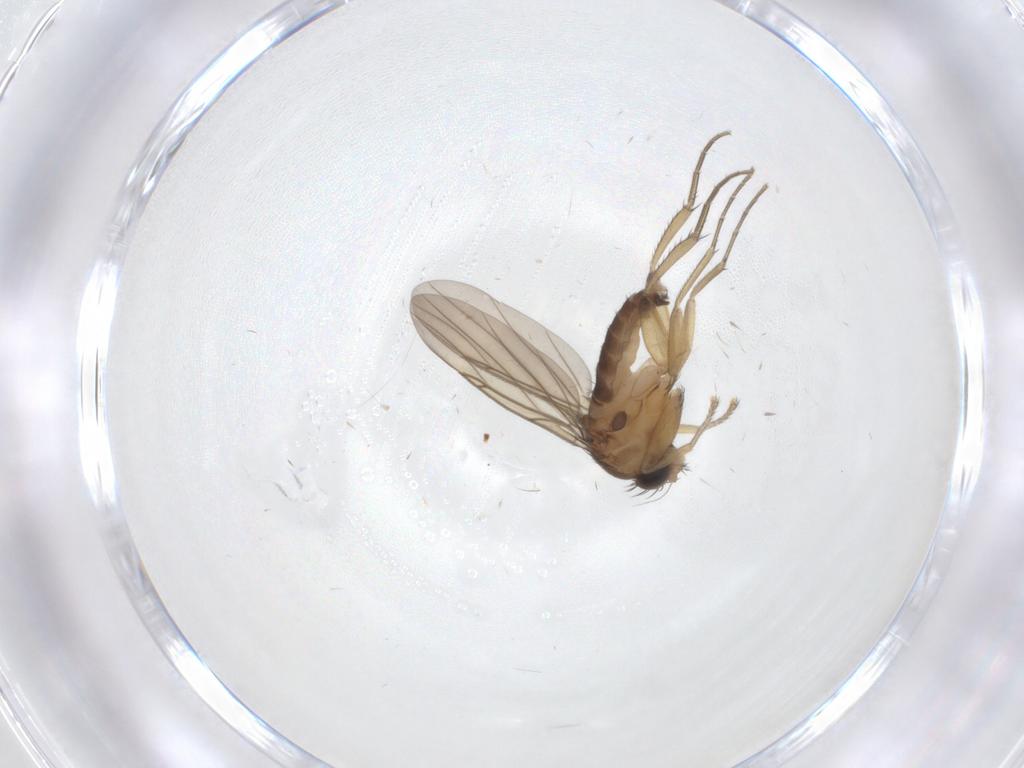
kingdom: Animalia
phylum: Arthropoda
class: Insecta
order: Diptera
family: Phoridae
